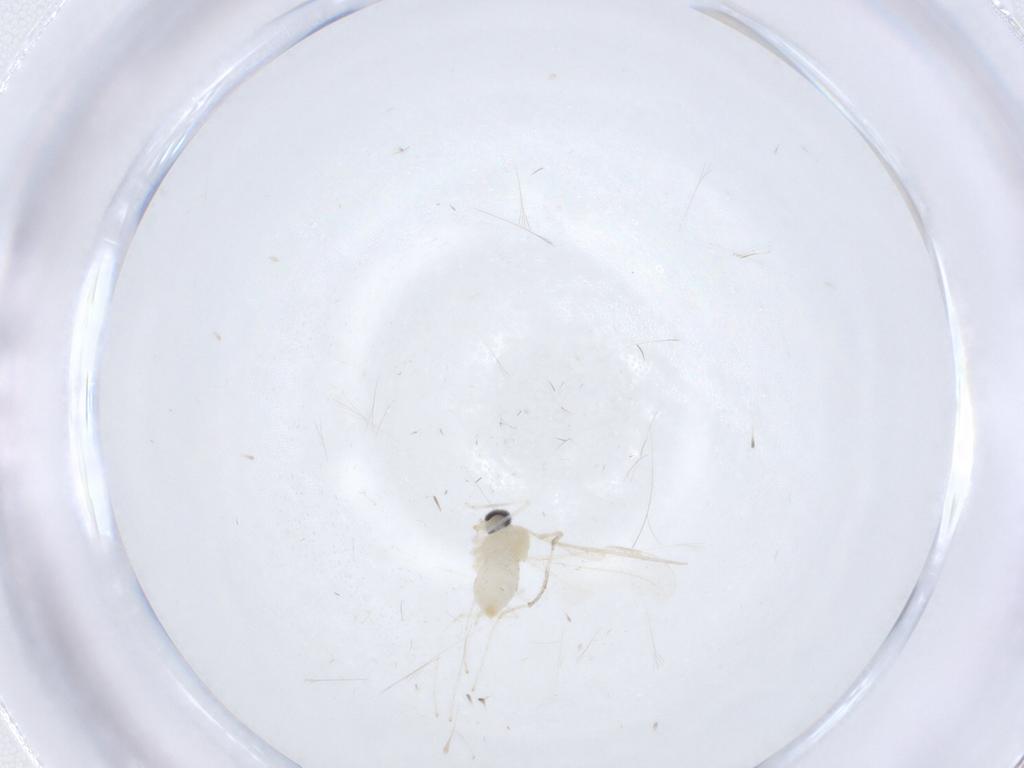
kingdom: Animalia
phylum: Arthropoda
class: Insecta
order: Diptera
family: Cecidomyiidae
